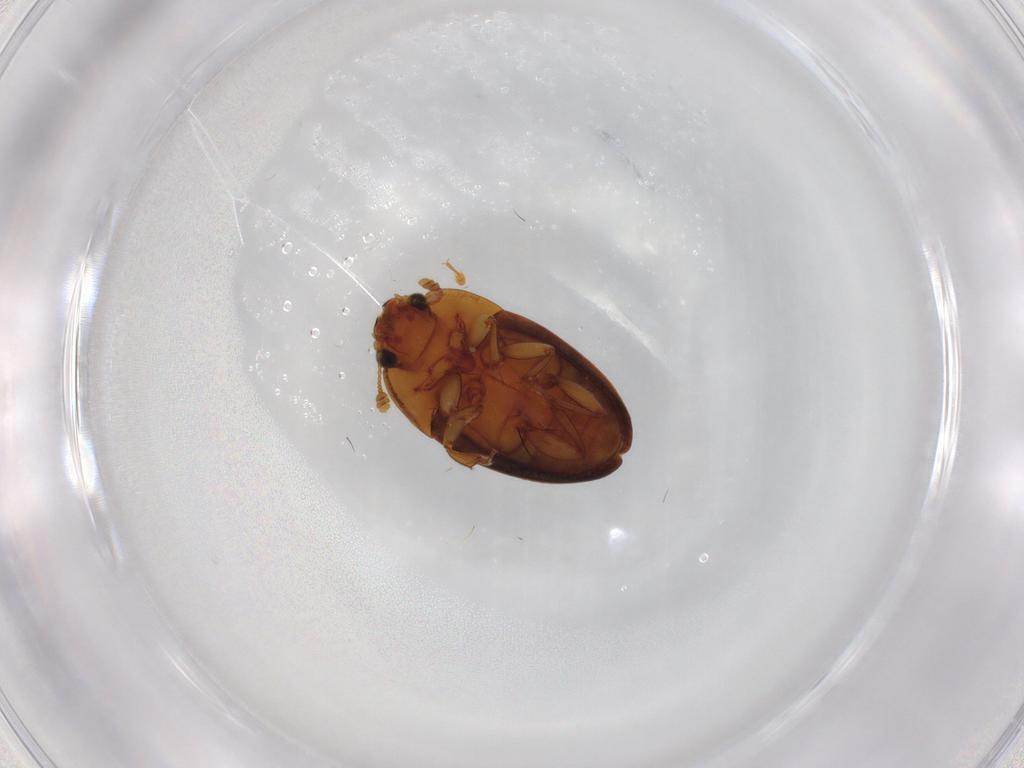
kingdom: Animalia
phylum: Arthropoda
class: Insecta
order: Coleoptera
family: Nitidulidae
